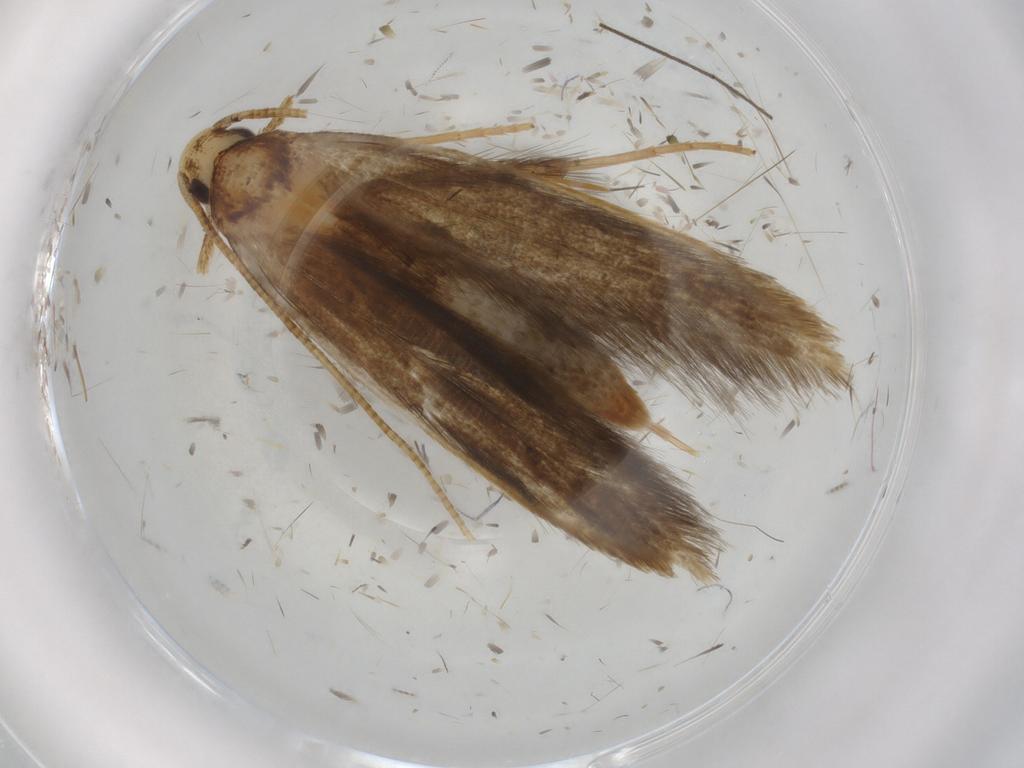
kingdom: Animalia
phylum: Arthropoda
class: Insecta
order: Lepidoptera
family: Tineidae
